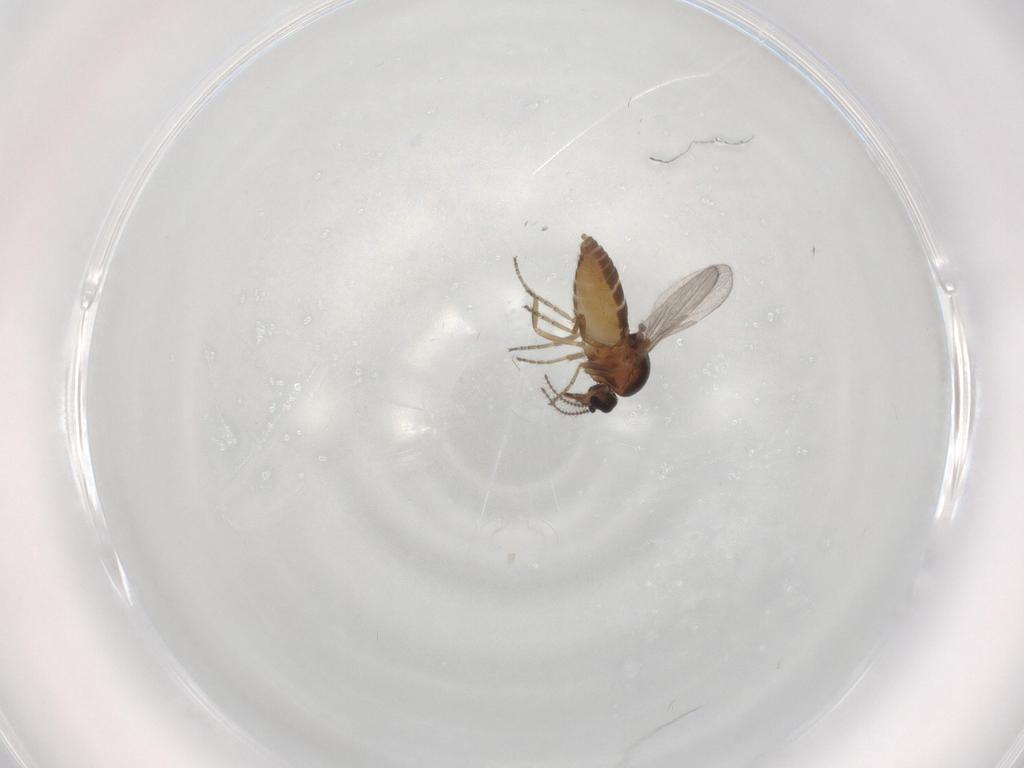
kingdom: Animalia
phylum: Arthropoda
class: Insecta
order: Diptera
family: Ceratopogonidae
